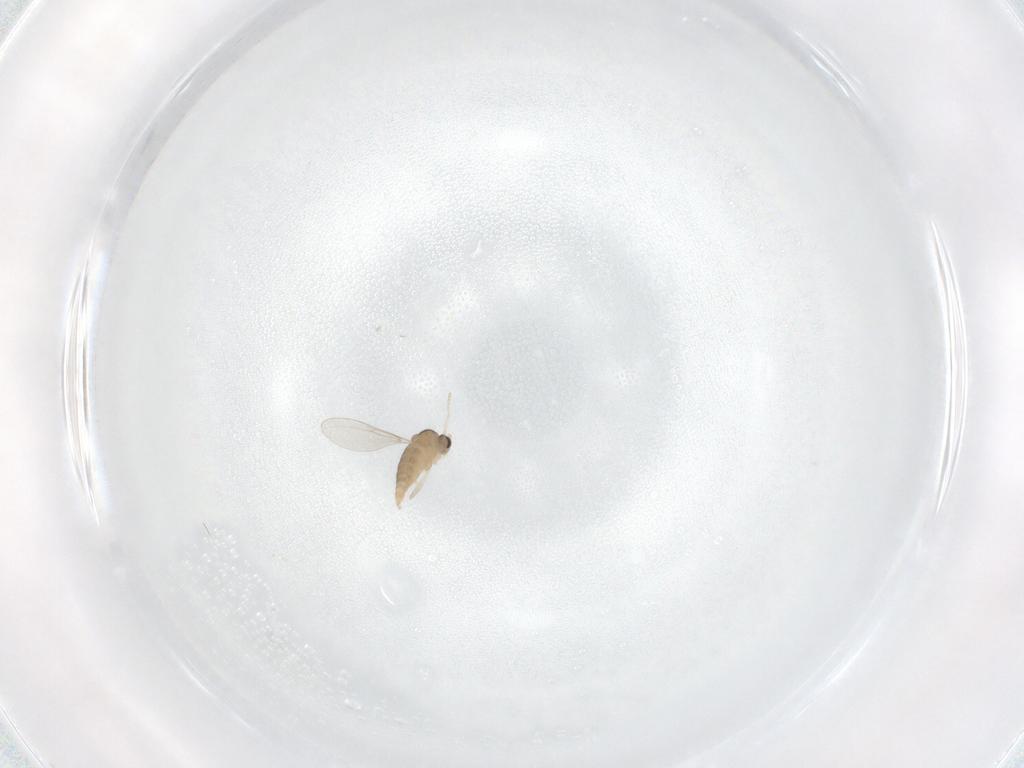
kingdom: Animalia
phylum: Arthropoda
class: Insecta
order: Diptera
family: Cecidomyiidae
